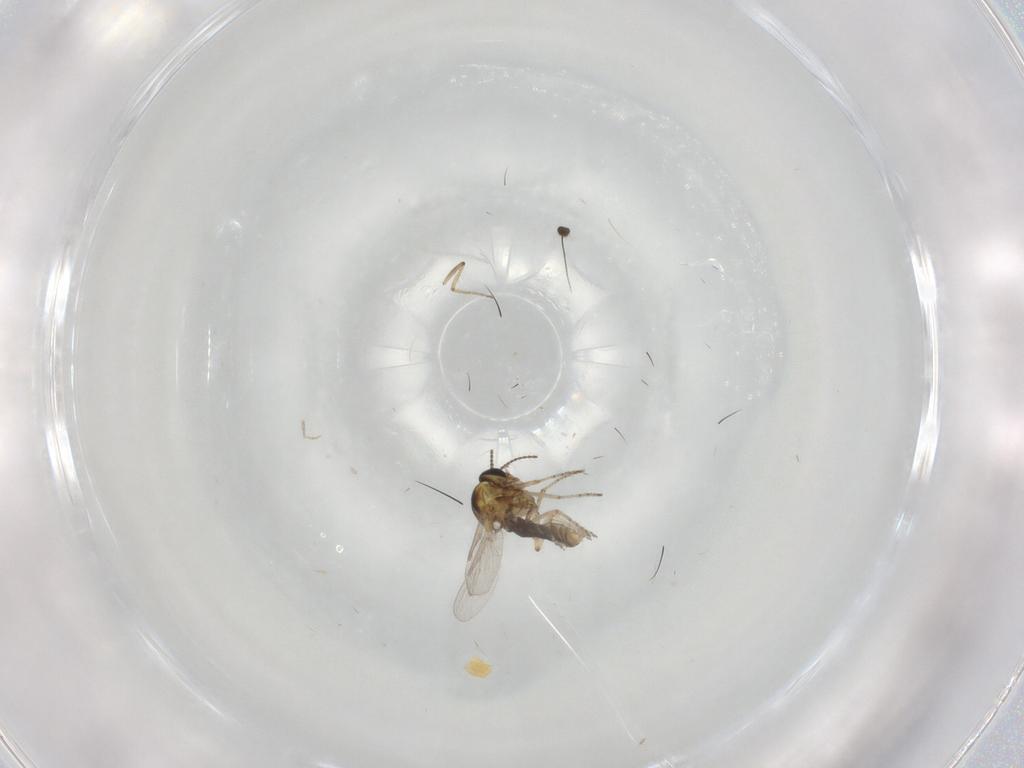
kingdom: Animalia
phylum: Arthropoda
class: Insecta
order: Diptera
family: Ceratopogonidae
